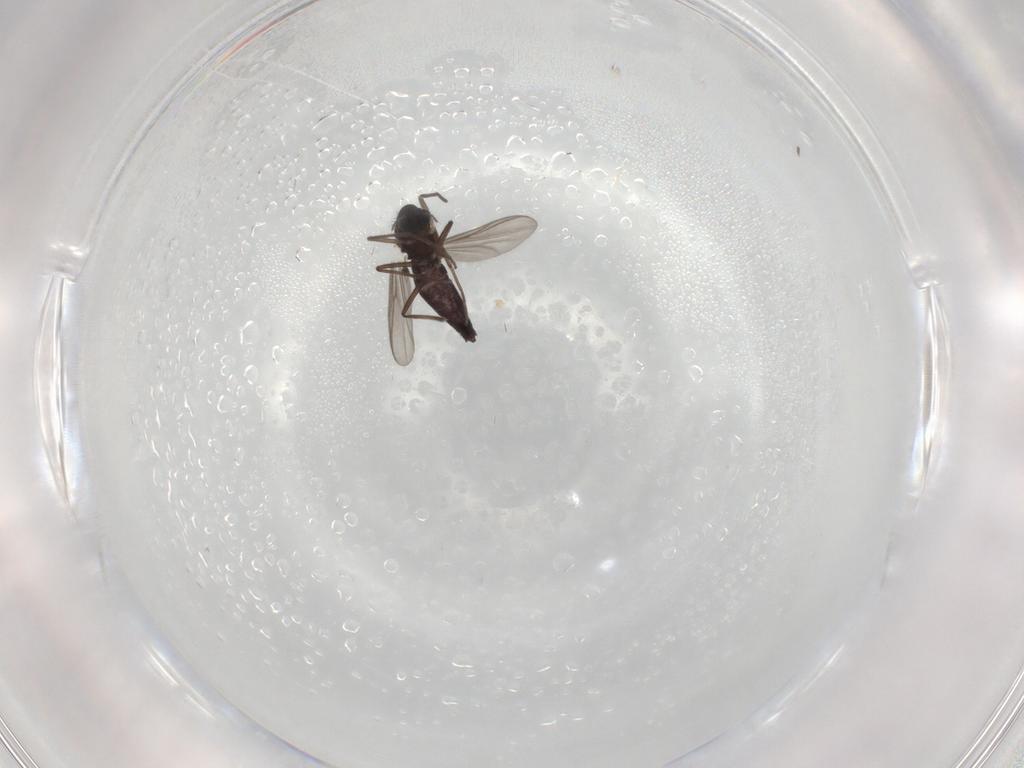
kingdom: Animalia
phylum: Arthropoda
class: Insecta
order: Diptera
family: Chironomidae
